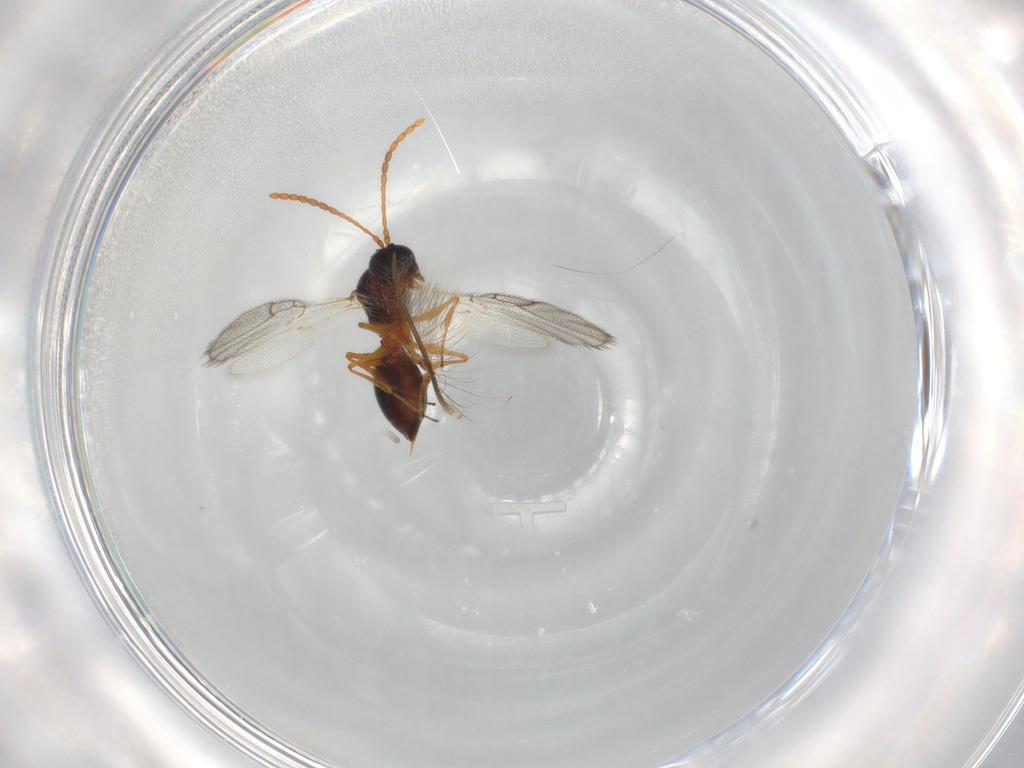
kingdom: Animalia
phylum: Arthropoda
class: Insecta
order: Hymenoptera
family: Figitidae
